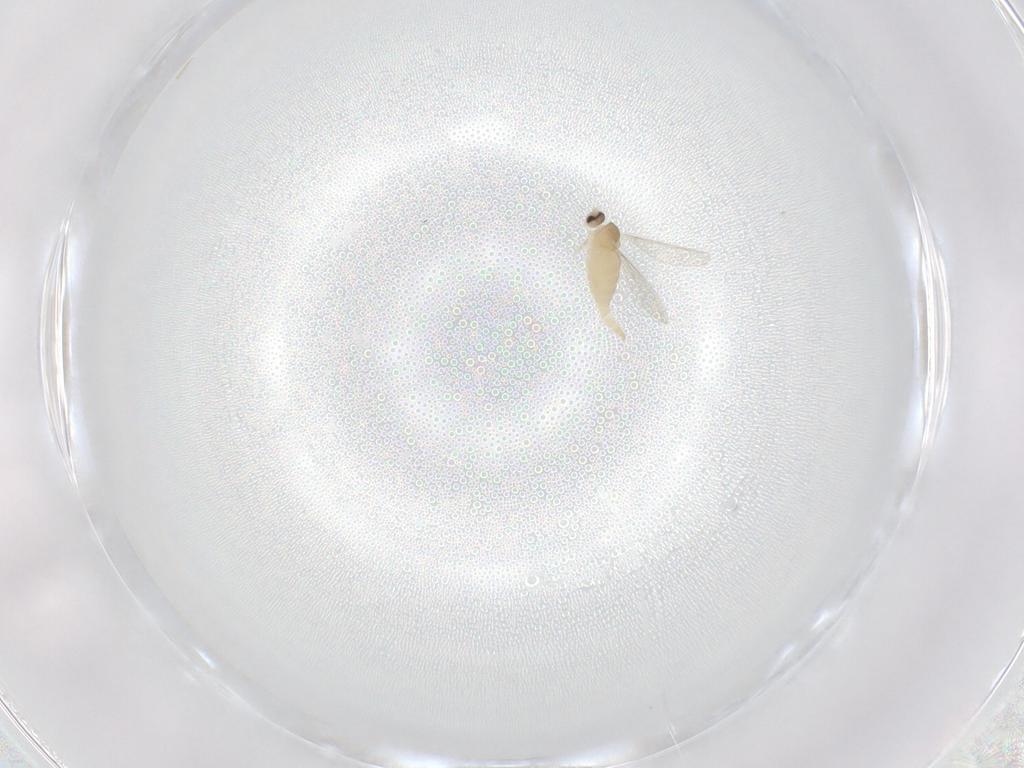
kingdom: Animalia
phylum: Arthropoda
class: Insecta
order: Diptera
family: Cecidomyiidae
